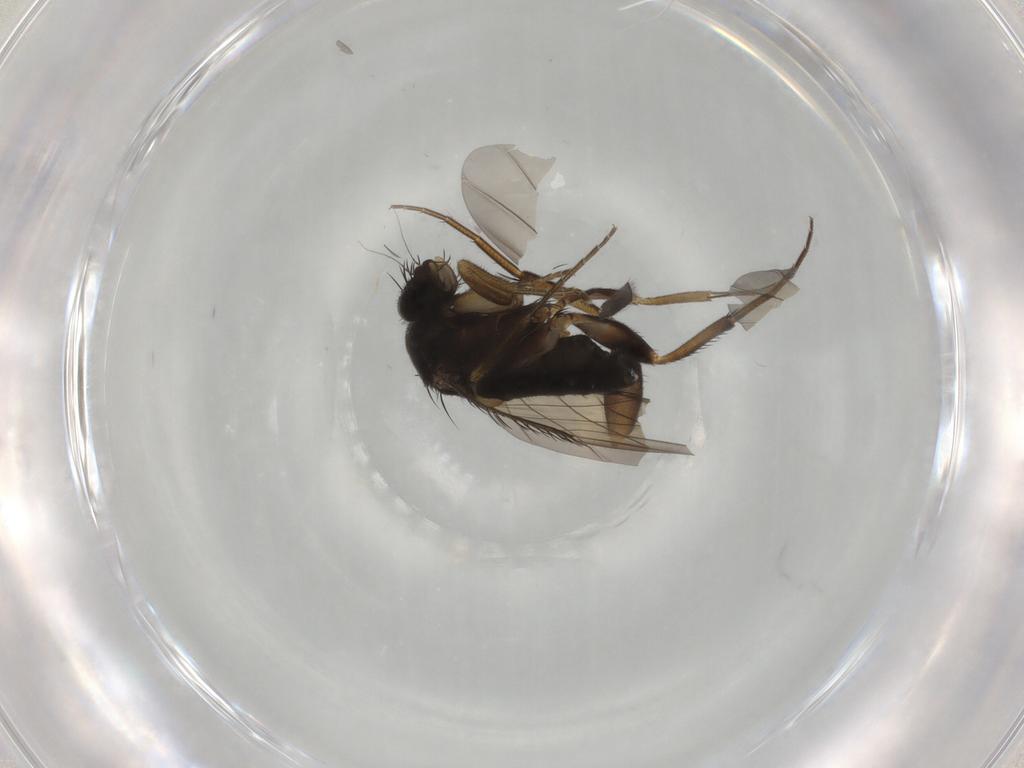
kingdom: Animalia
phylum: Arthropoda
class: Insecta
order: Diptera
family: Phoridae
